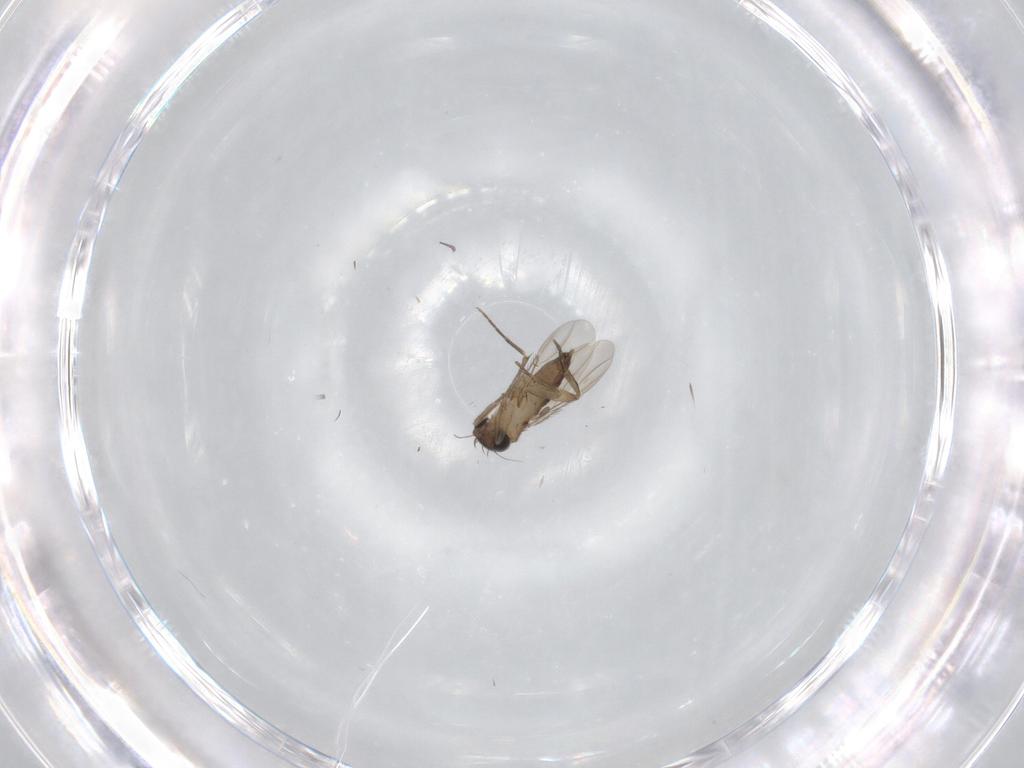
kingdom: Animalia
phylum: Arthropoda
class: Insecta
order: Diptera
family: Phoridae
